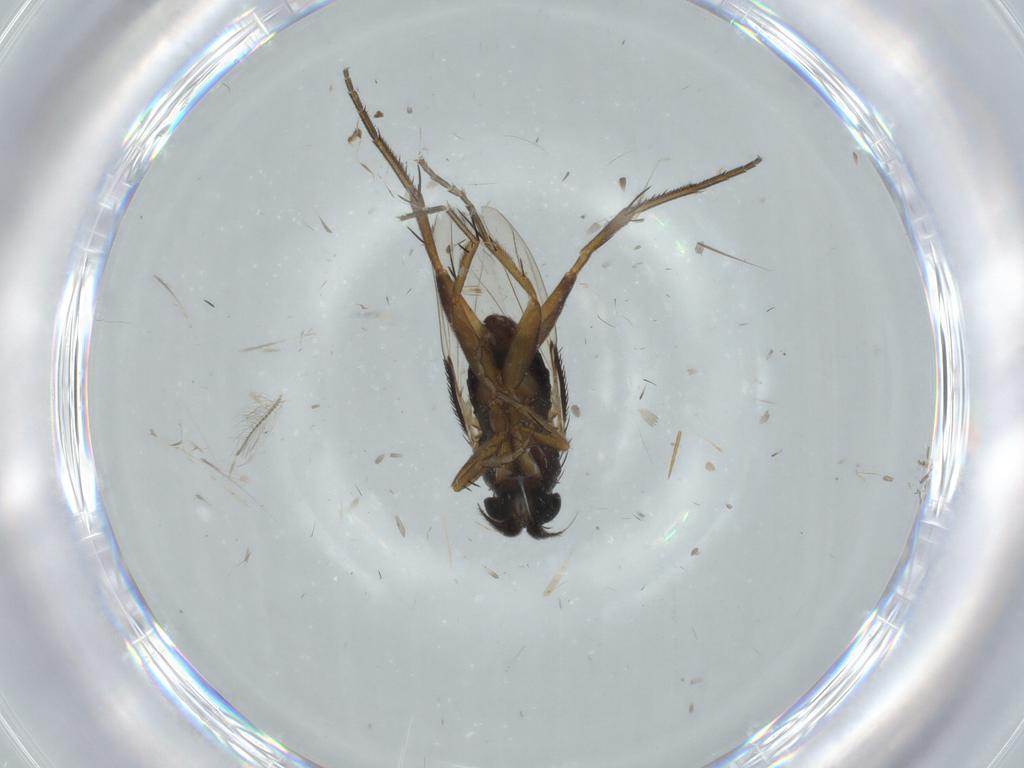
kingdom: Animalia
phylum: Arthropoda
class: Insecta
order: Diptera
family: Phoridae
